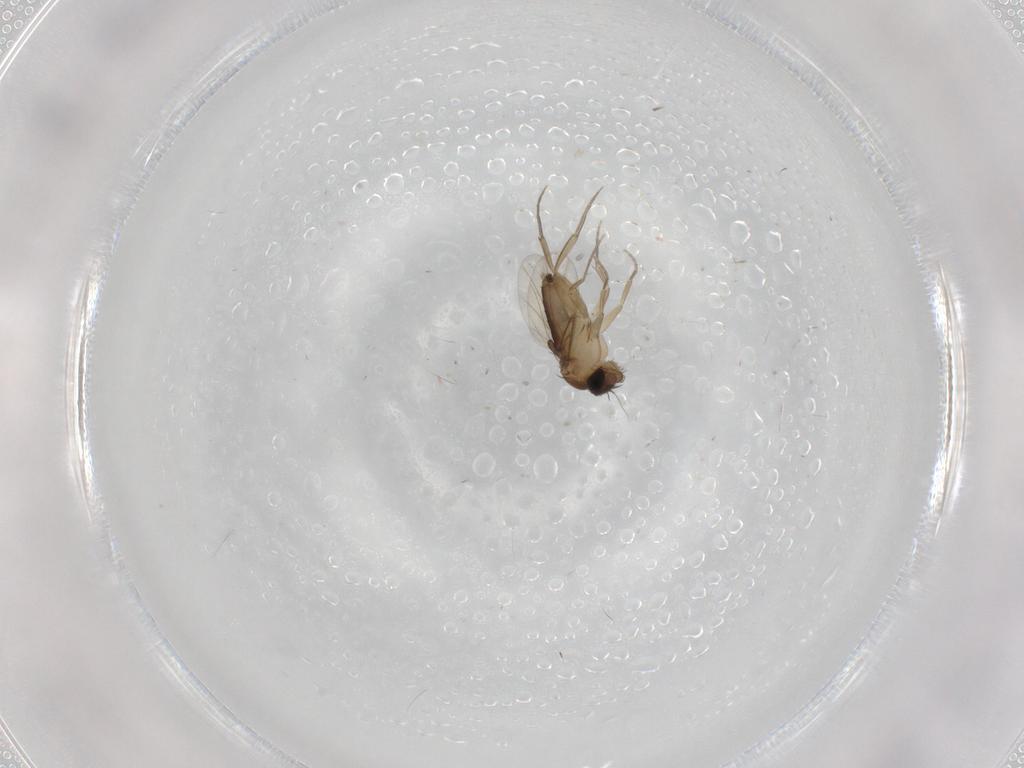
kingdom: Animalia
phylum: Arthropoda
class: Insecta
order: Diptera
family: Phoridae
